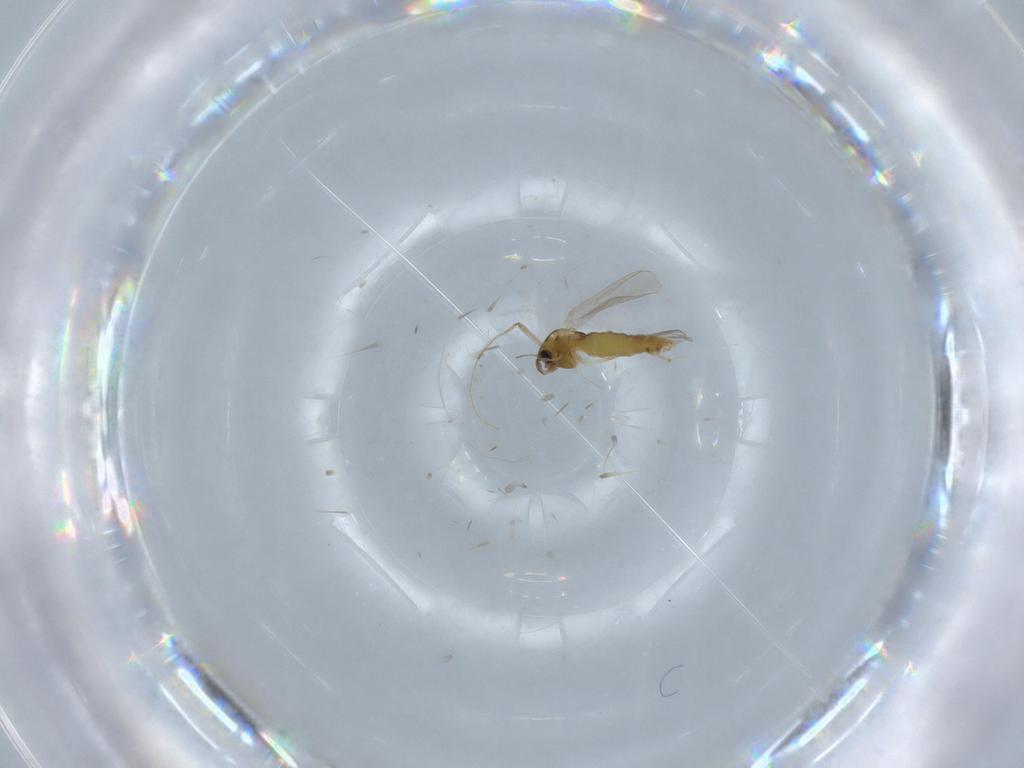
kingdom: Animalia
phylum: Arthropoda
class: Insecta
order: Diptera
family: Chironomidae
